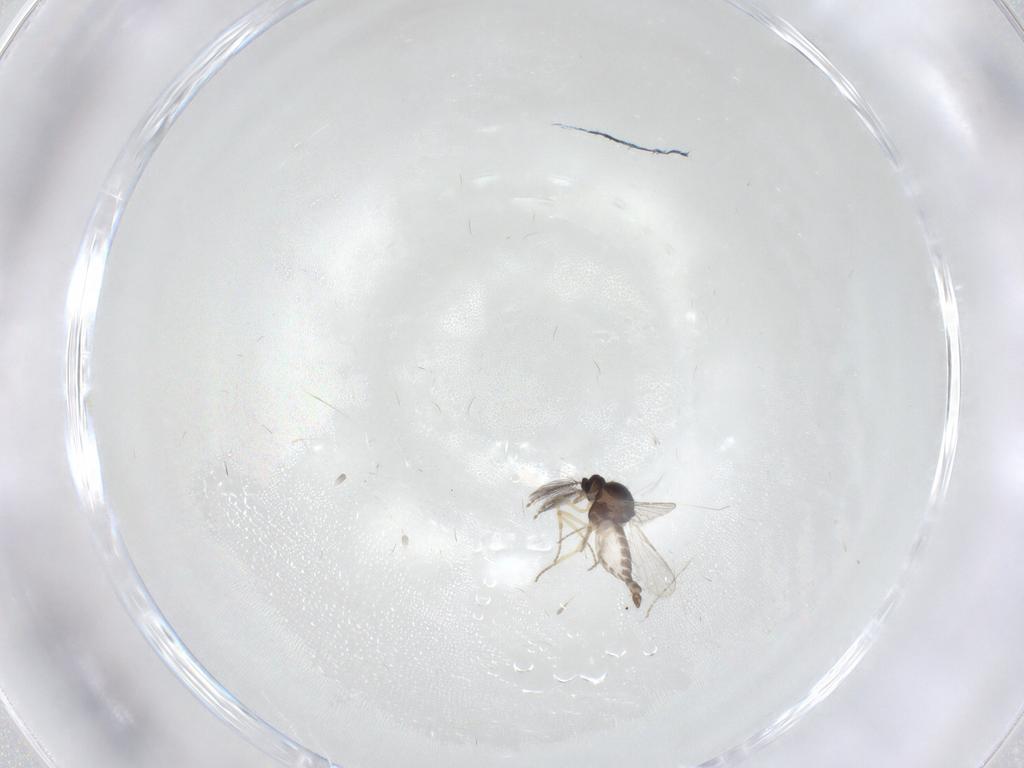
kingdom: Animalia
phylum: Arthropoda
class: Insecta
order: Diptera
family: Ceratopogonidae
